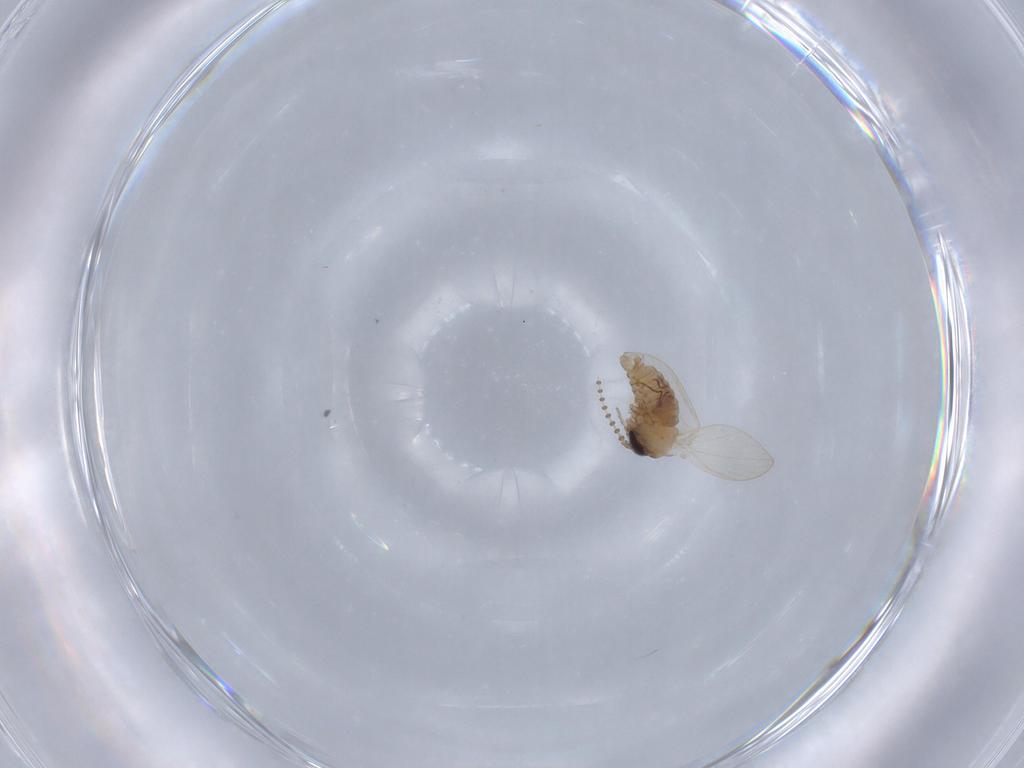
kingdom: Animalia
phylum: Arthropoda
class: Insecta
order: Diptera
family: Psychodidae
